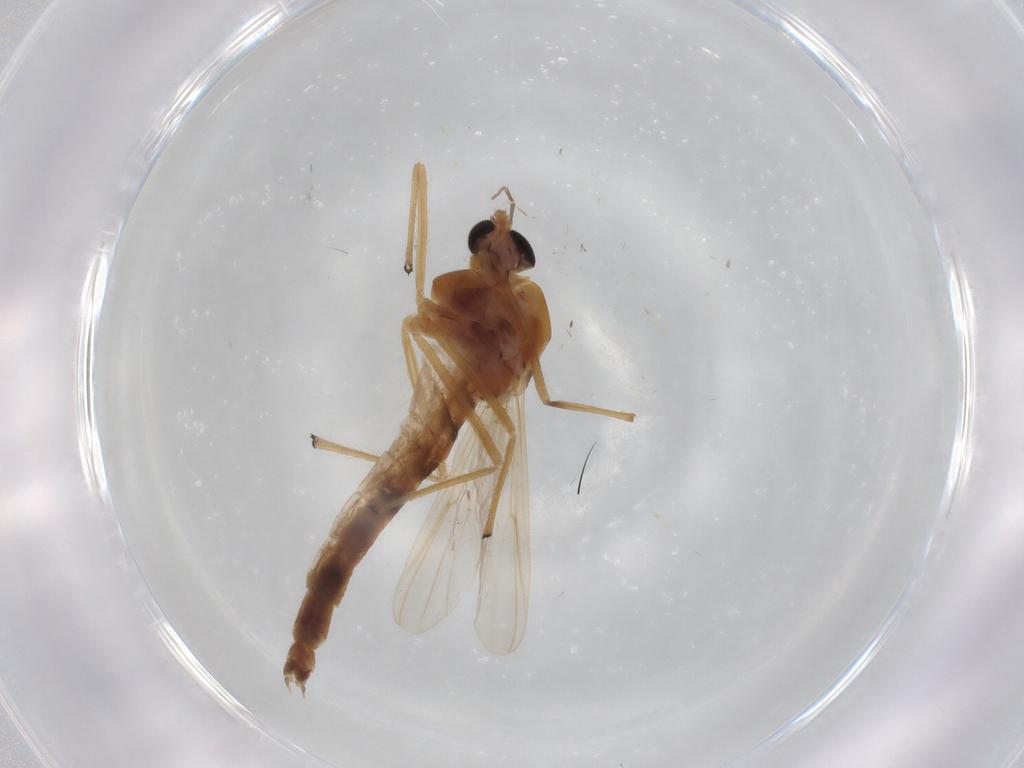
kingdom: Animalia
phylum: Arthropoda
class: Insecta
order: Diptera
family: Chironomidae
